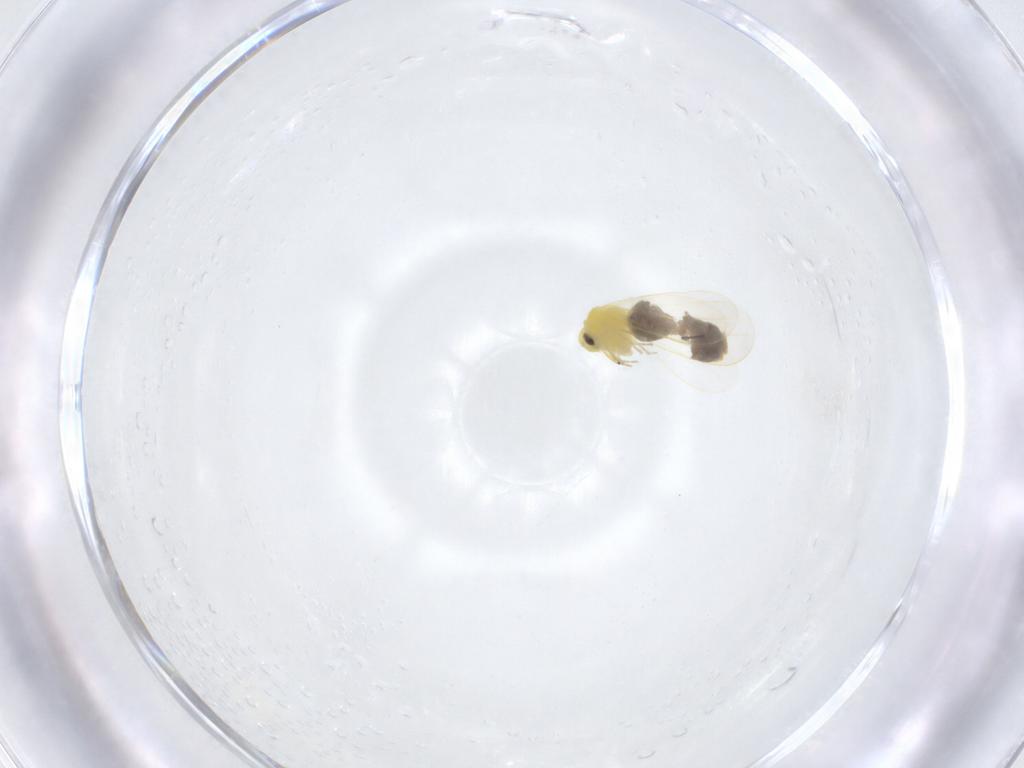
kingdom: Animalia
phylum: Arthropoda
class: Insecta
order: Hemiptera
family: Aleyrodidae
